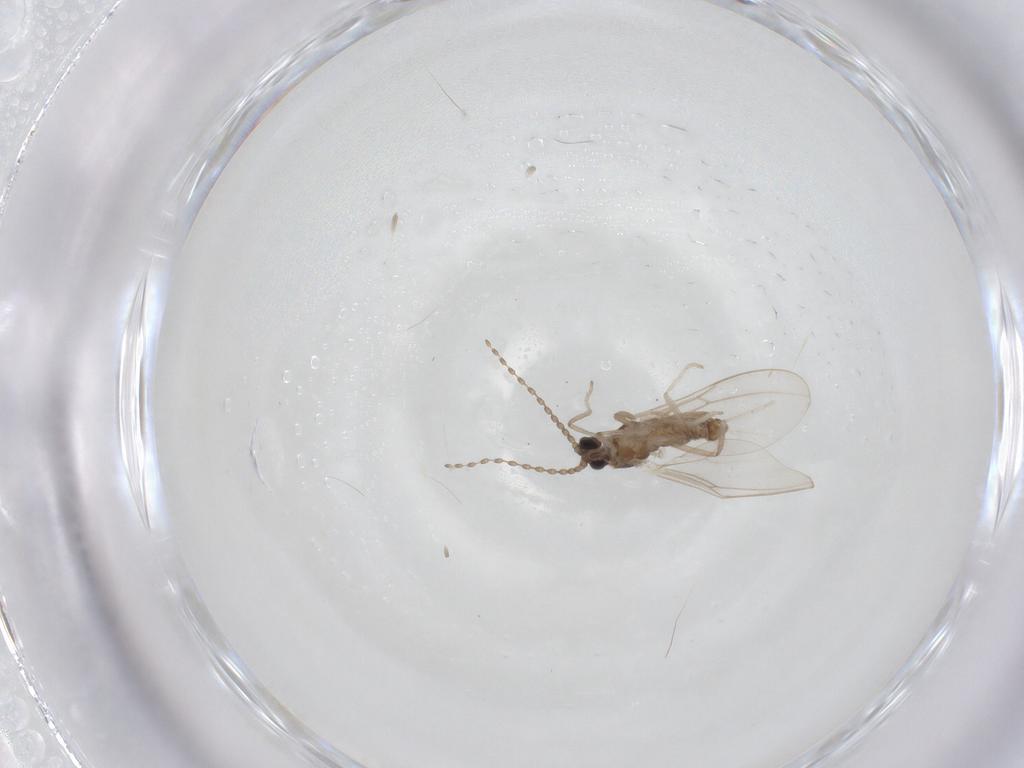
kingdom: Animalia
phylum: Arthropoda
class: Insecta
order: Diptera
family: Cecidomyiidae
